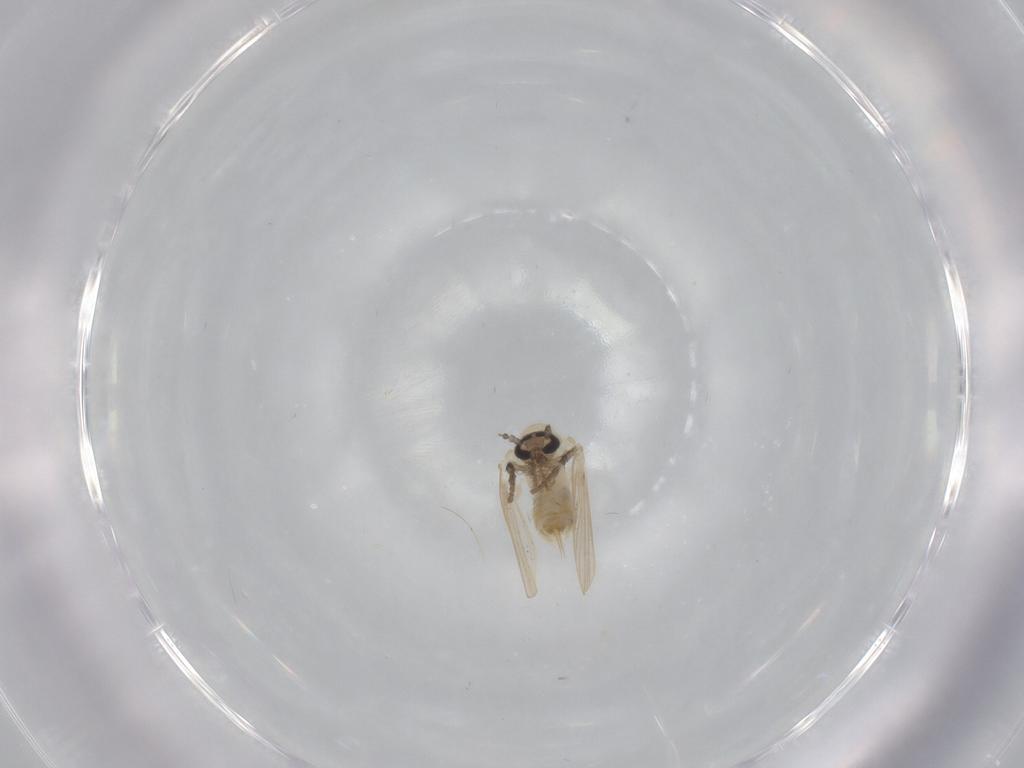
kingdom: Animalia
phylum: Arthropoda
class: Insecta
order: Diptera
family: Psychodidae
